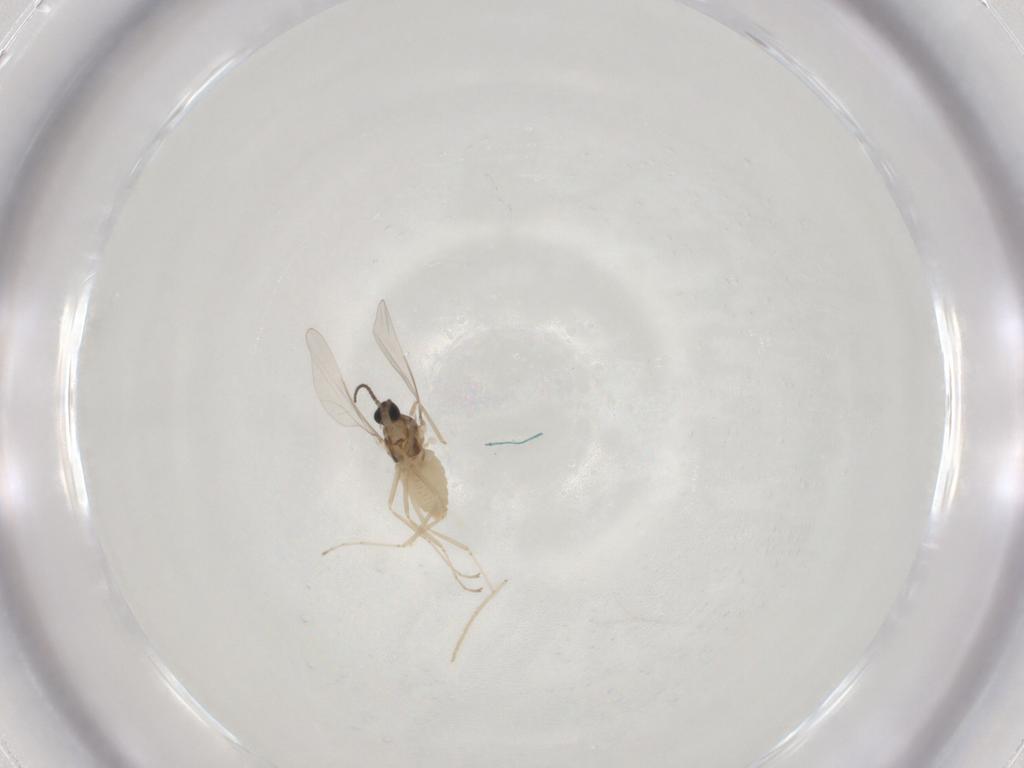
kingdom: Animalia
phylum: Arthropoda
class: Insecta
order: Diptera
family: Cecidomyiidae
